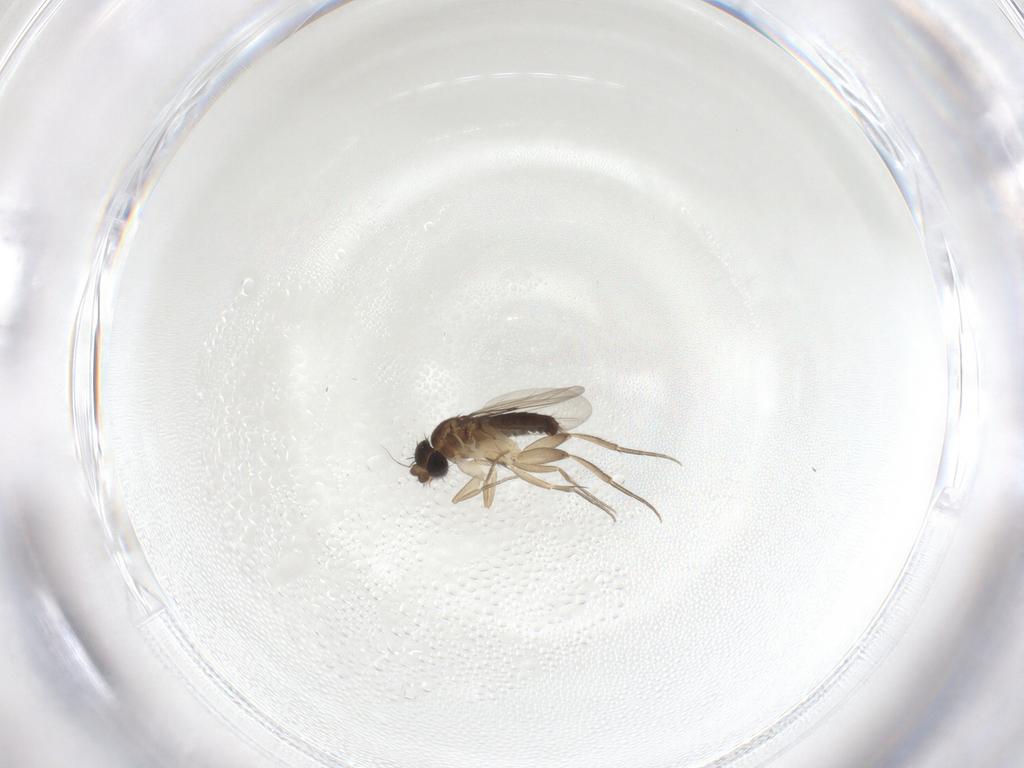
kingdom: Animalia
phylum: Arthropoda
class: Insecta
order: Diptera
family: Phoridae
